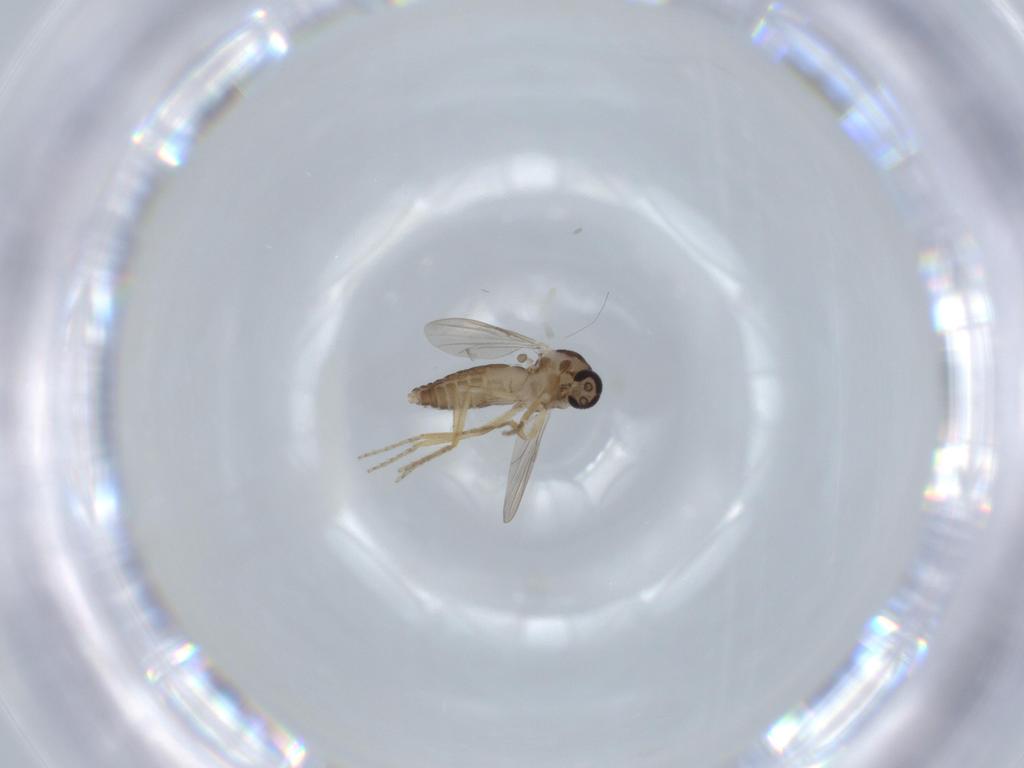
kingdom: Animalia
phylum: Arthropoda
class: Insecta
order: Diptera
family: Ceratopogonidae
